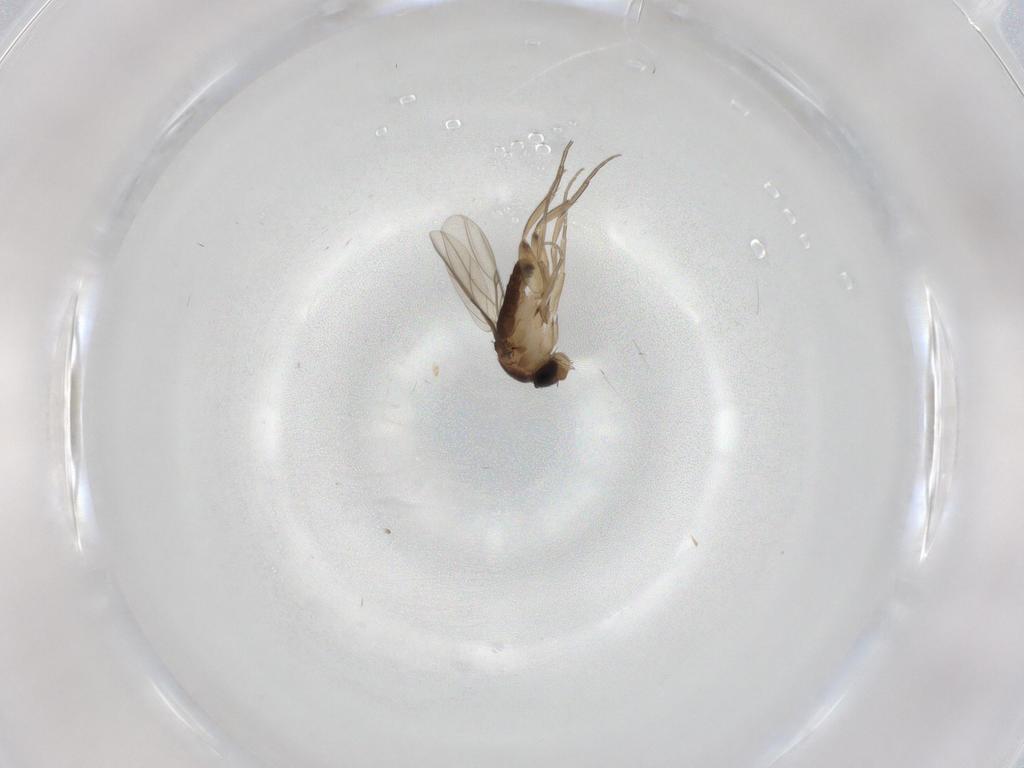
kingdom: Animalia
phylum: Arthropoda
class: Insecta
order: Diptera
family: Phoridae
